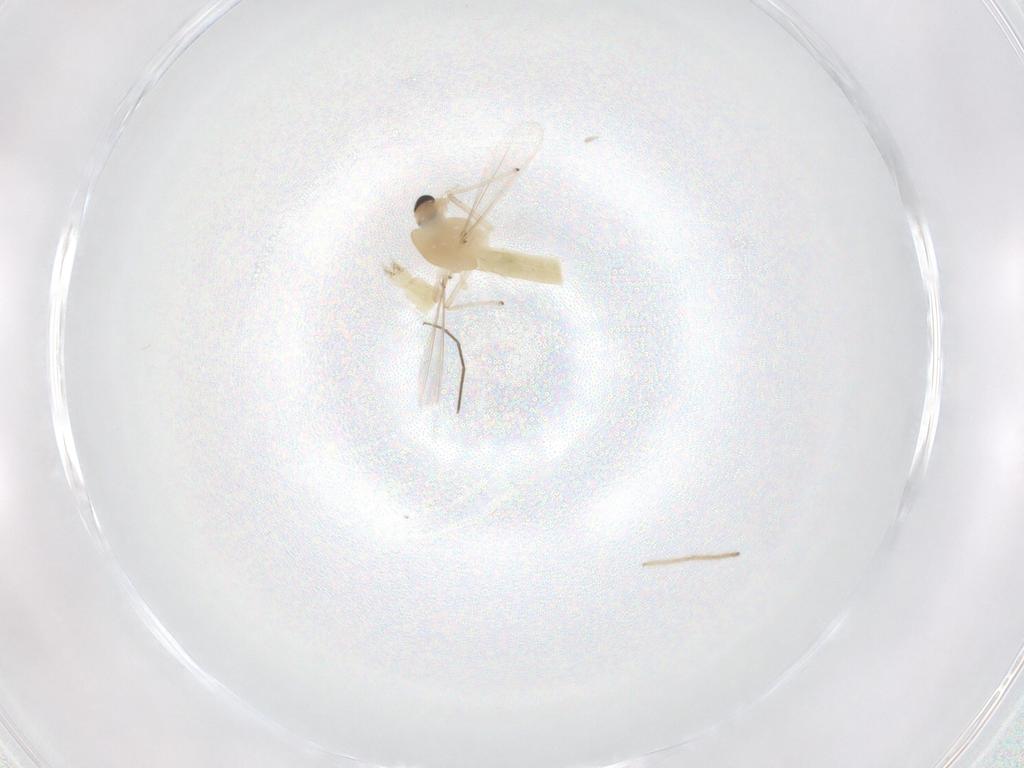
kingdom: Animalia
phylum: Arthropoda
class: Insecta
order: Diptera
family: Chironomidae
